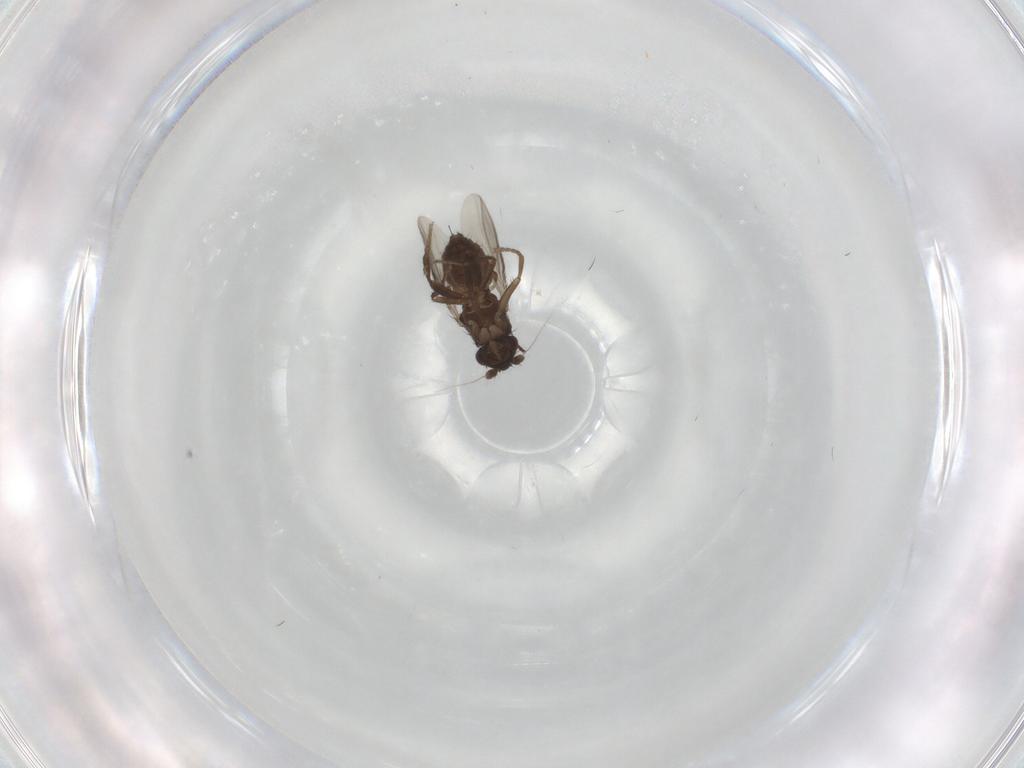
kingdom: Animalia
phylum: Arthropoda
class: Insecta
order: Diptera
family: Sphaeroceridae
